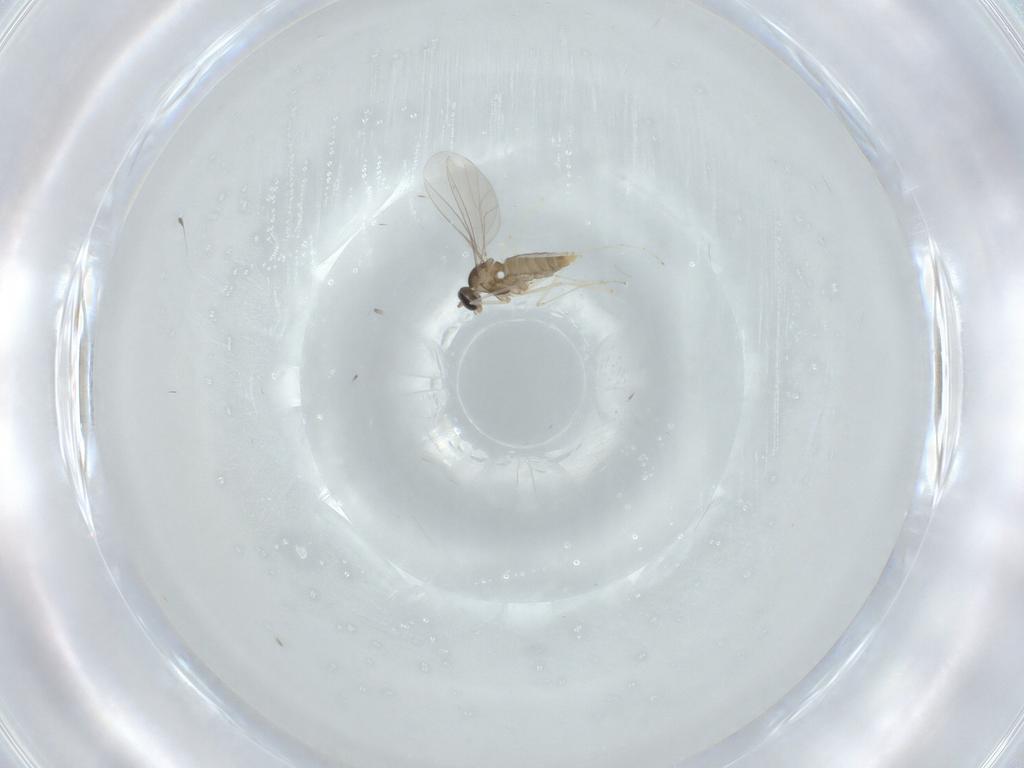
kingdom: Animalia
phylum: Arthropoda
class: Insecta
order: Diptera
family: Cecidomyiidae
